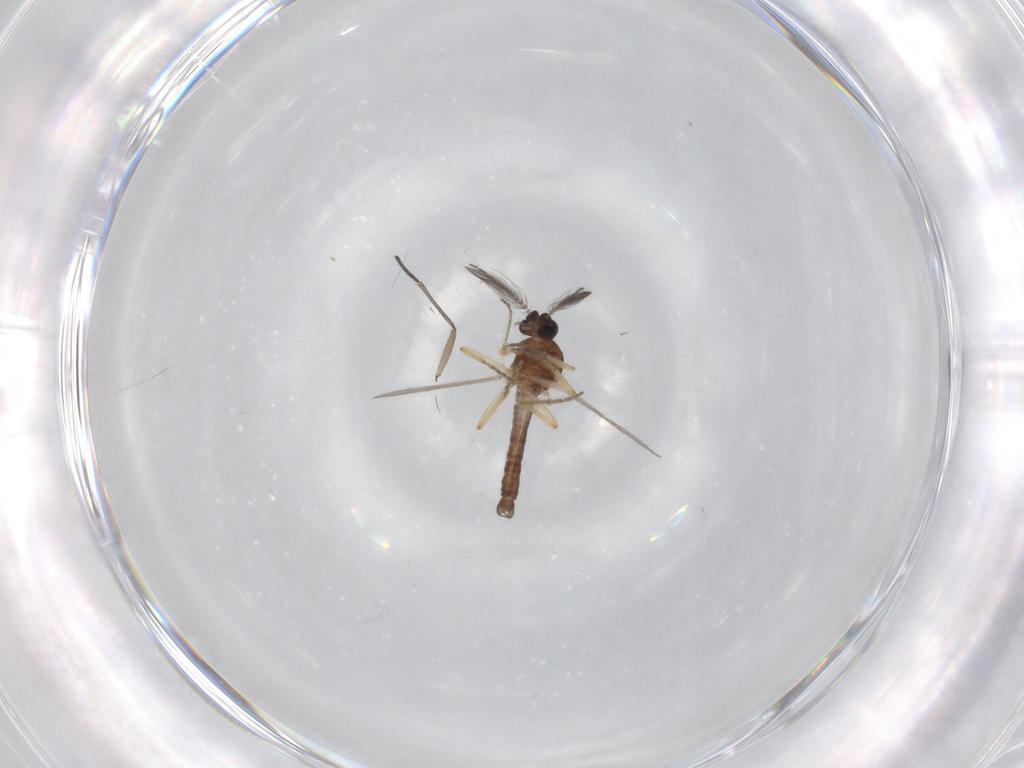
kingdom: Animalia
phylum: Arthropoda
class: Insecta
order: Diptera
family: Ceratopogonidae
